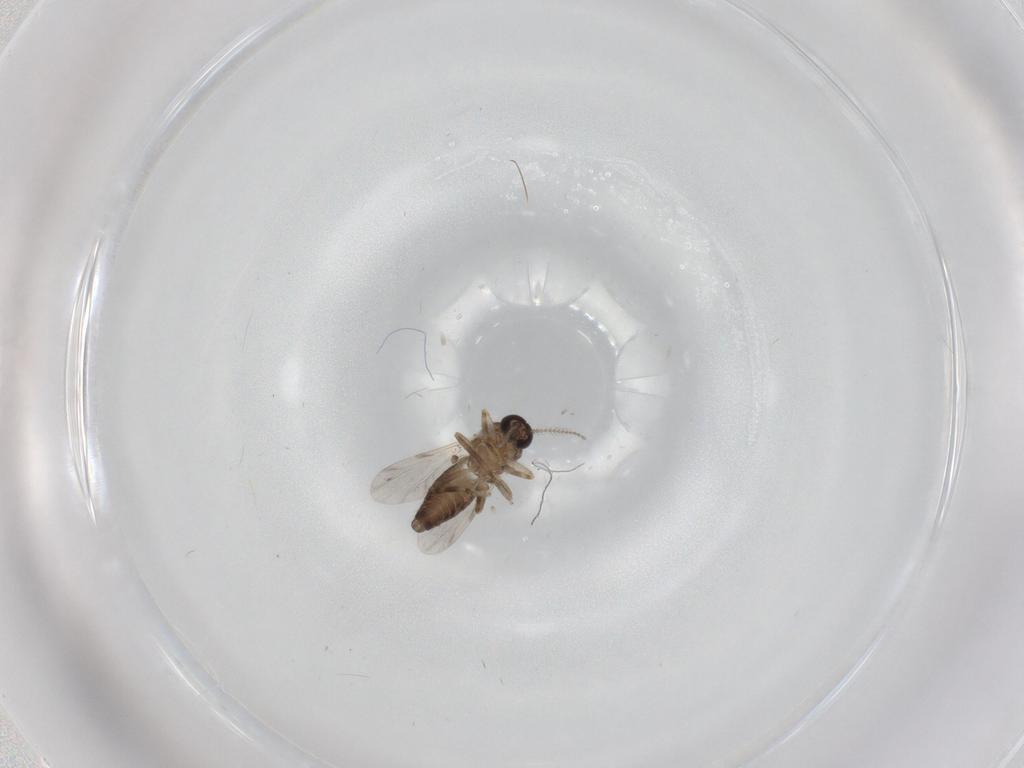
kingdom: Animalia
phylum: Arthropoda
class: Insecta
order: Diptera
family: Ceratopogonidae
